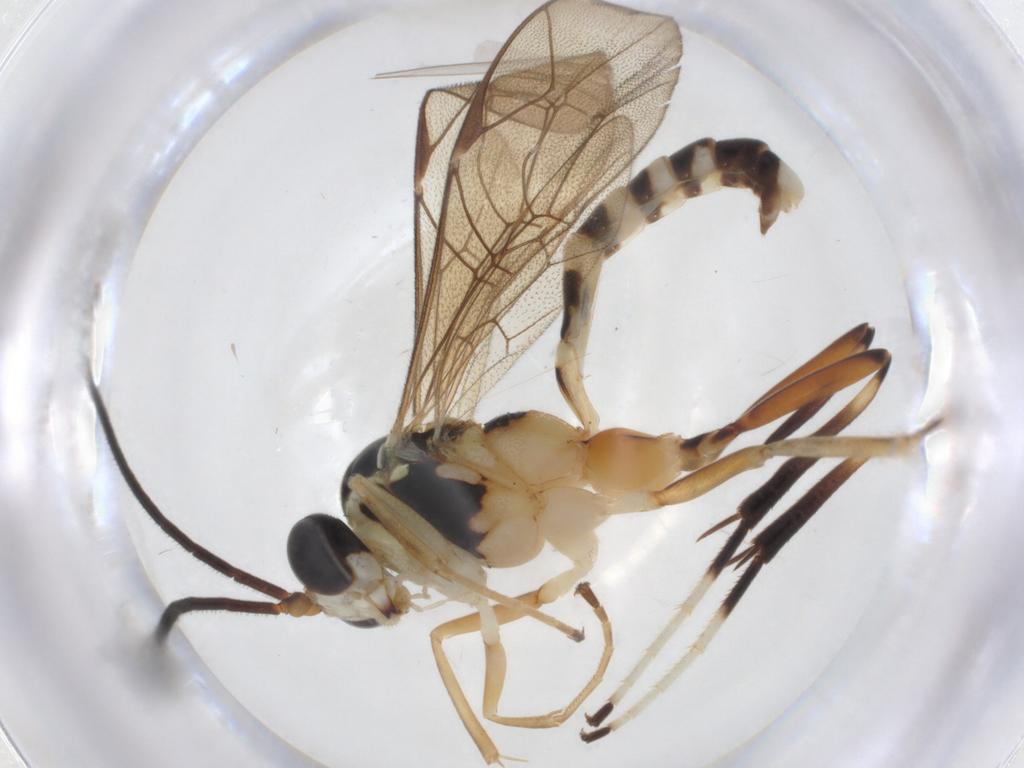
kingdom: Animalia
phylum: Arthropoda
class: Insecta
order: Hymenoptera
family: Ichneumonidae
